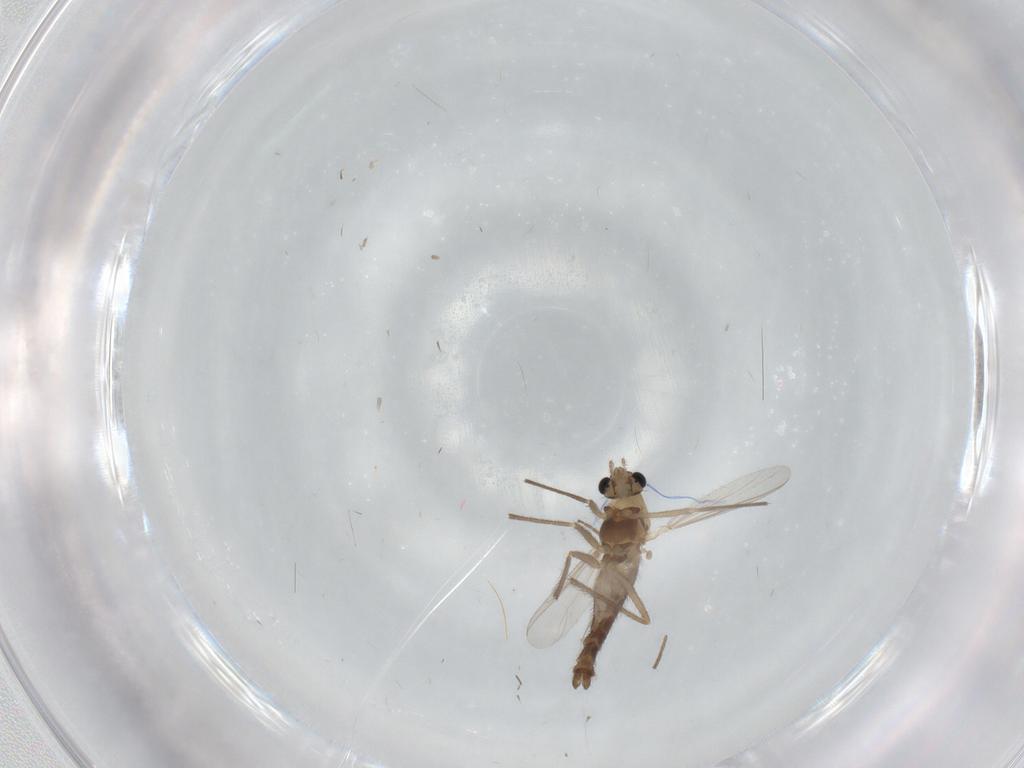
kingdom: Animalia
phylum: Arthropoda
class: Insecta
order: Diptera
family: Chironomidae
